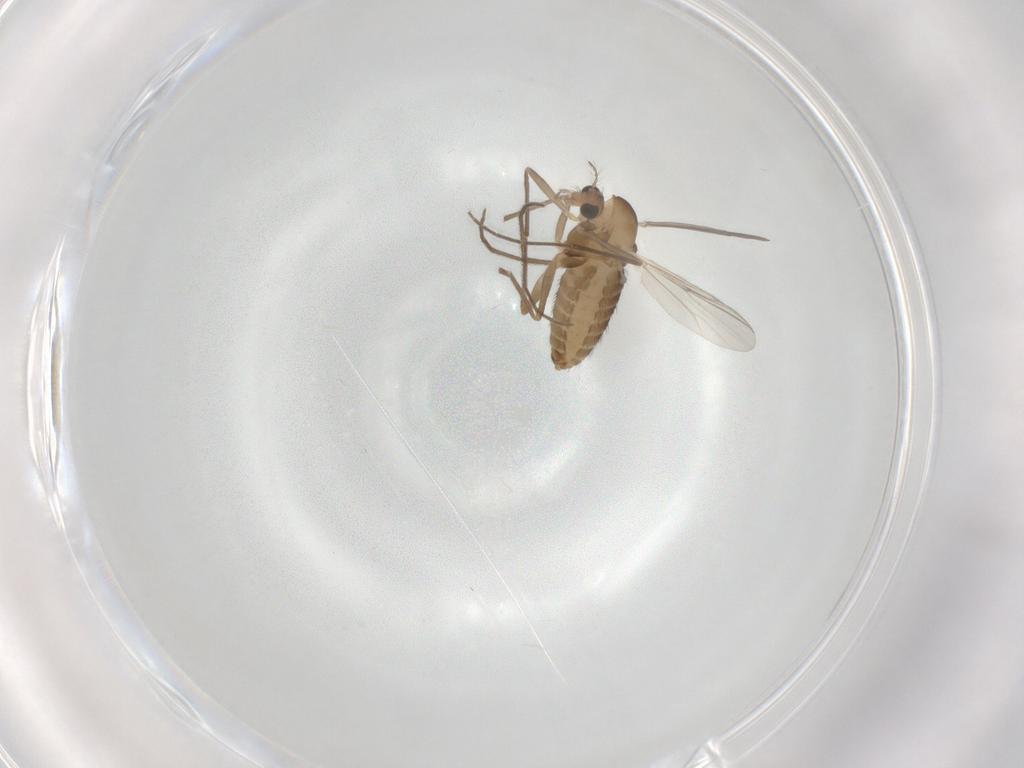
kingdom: Animalia
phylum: Arthropoda
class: Insecta
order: Diptera
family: Chironomidae
